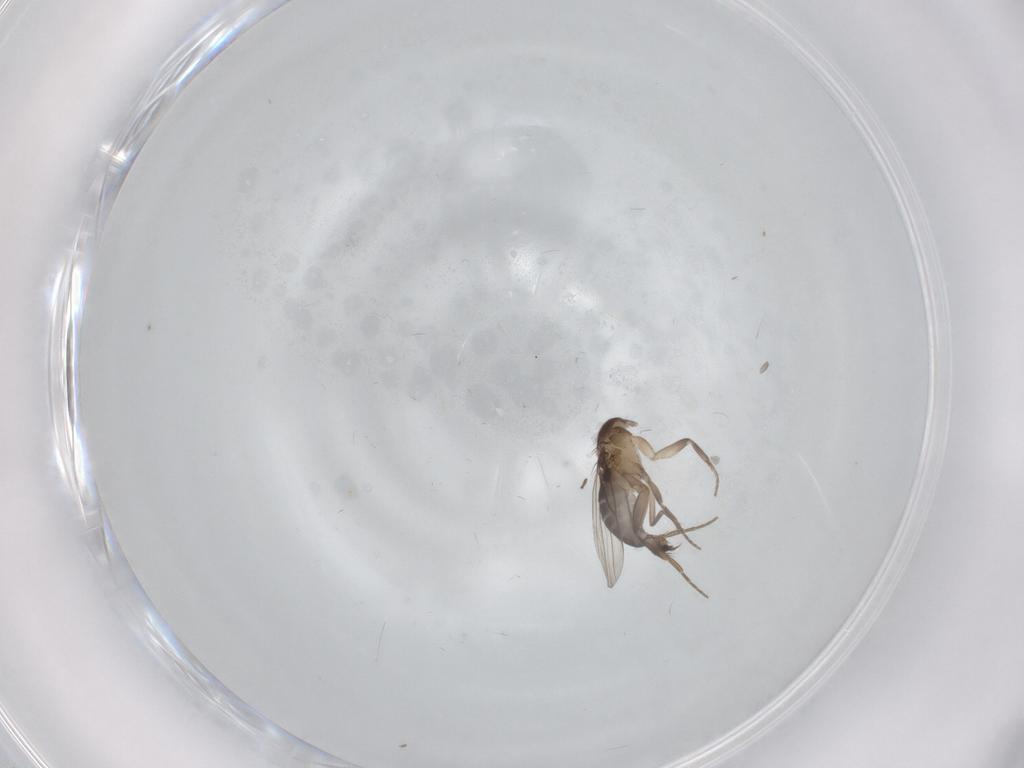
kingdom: Animalia
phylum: Arthropoda
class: Insecta
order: Diptera
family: Phoridae
